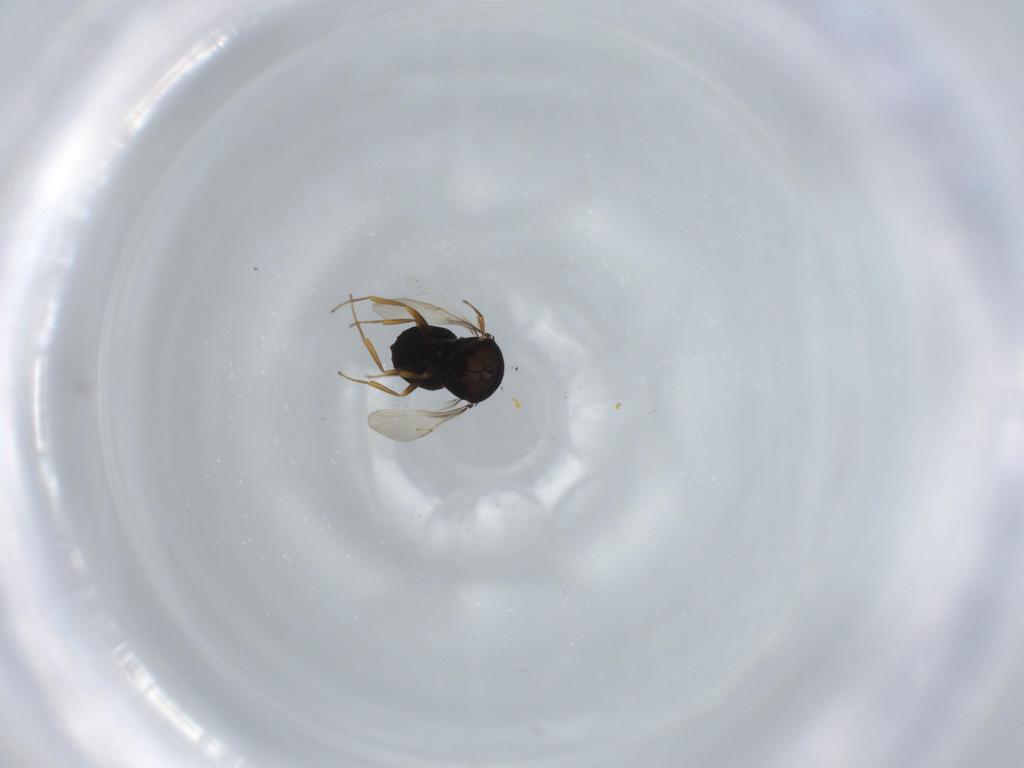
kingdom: Animalia
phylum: Arthropoda
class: Insecta
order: Hymenoptera
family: Scelionidae
